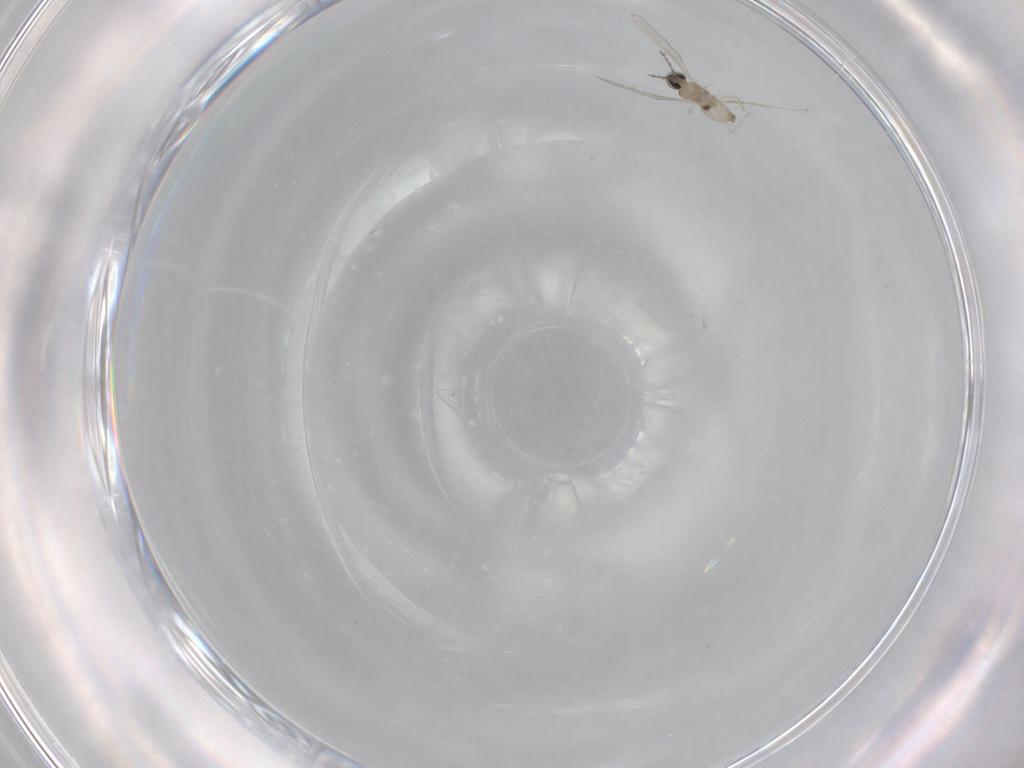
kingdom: Animalia
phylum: Arthropoda
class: Insecta
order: Diptera
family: Cecidomyiidae
